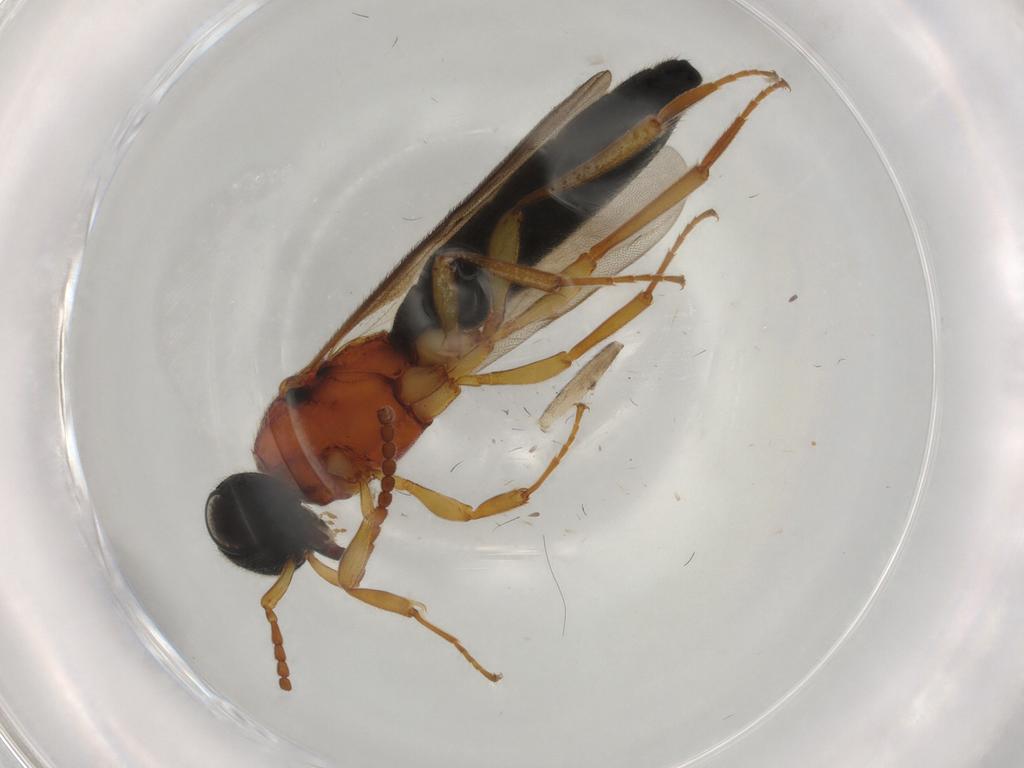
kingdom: Animalia
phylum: Arthropoda
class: Insecta
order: Hymenoptera
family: Scelionidae
